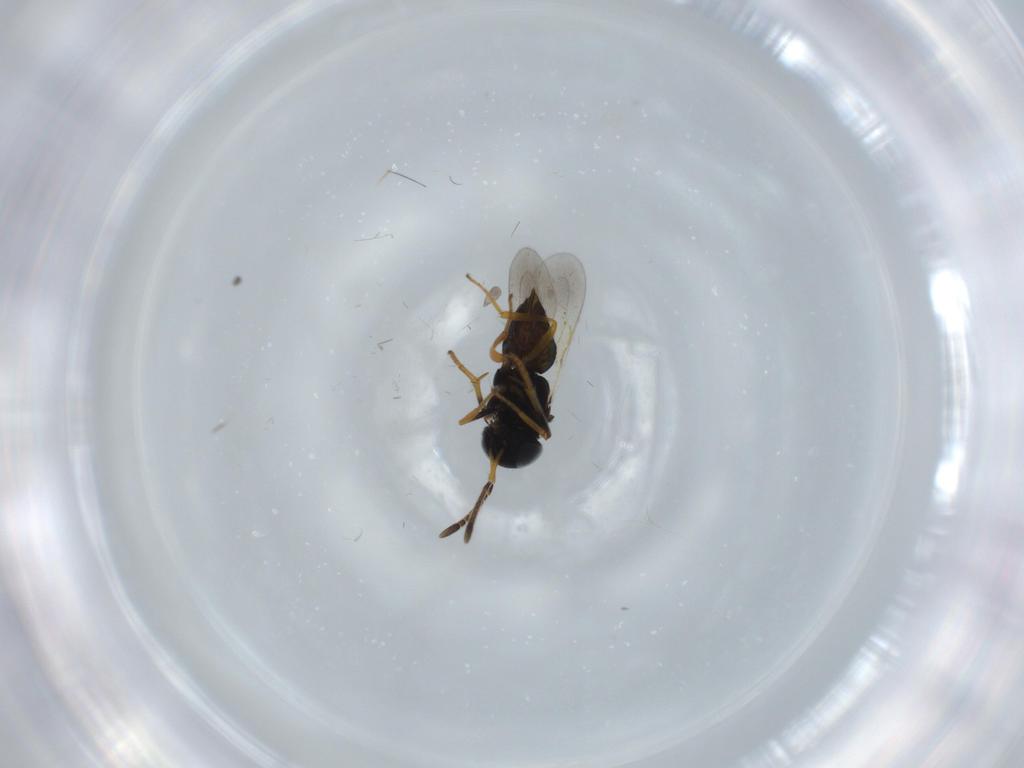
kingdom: Animalia
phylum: Arthropoda
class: Insecta
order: Hymenoptera
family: Encyrtidae
